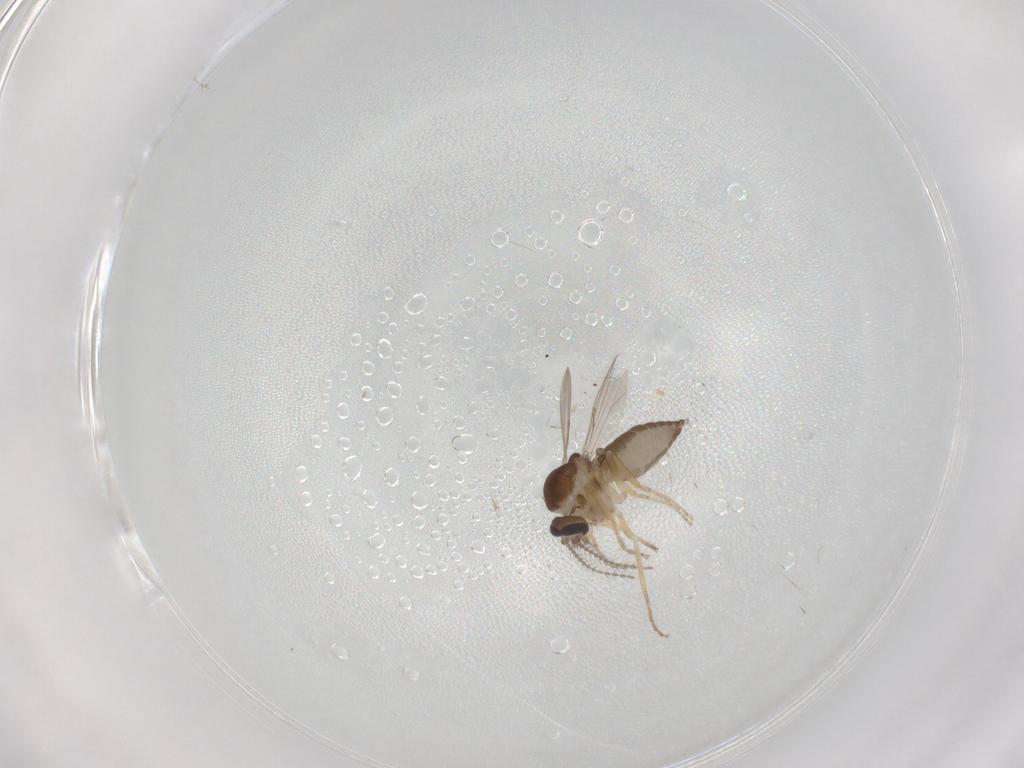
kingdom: Animalia
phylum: Arthropoda
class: Insecta
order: Diptera
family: Ceratopogonidae
